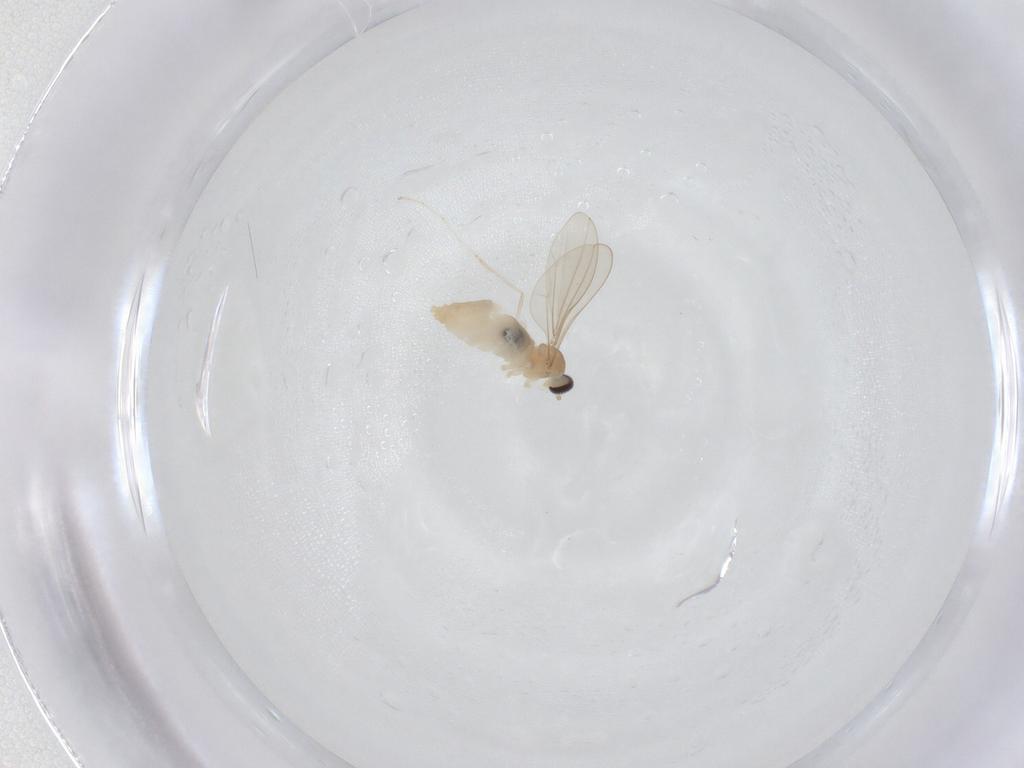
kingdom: Animalia
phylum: Arthropoda
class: Insecta
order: Diptera
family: Cecidomyiidae
